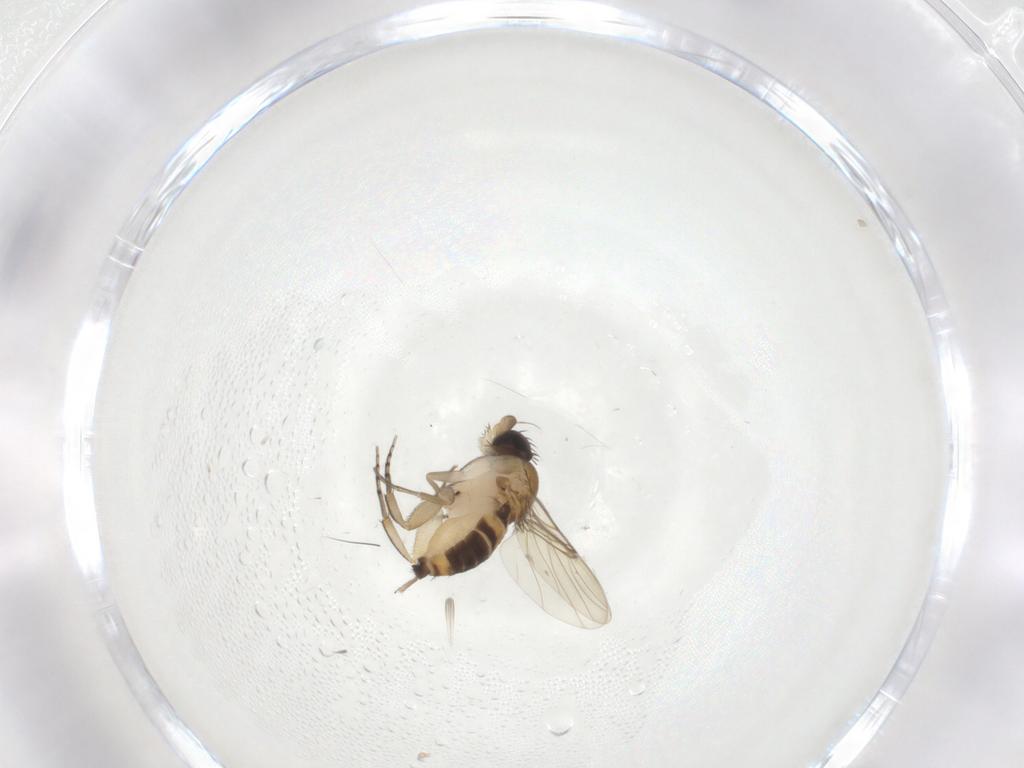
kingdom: Animalia
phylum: Arthropoda
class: Insecta
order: Diptera
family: Phoridae
